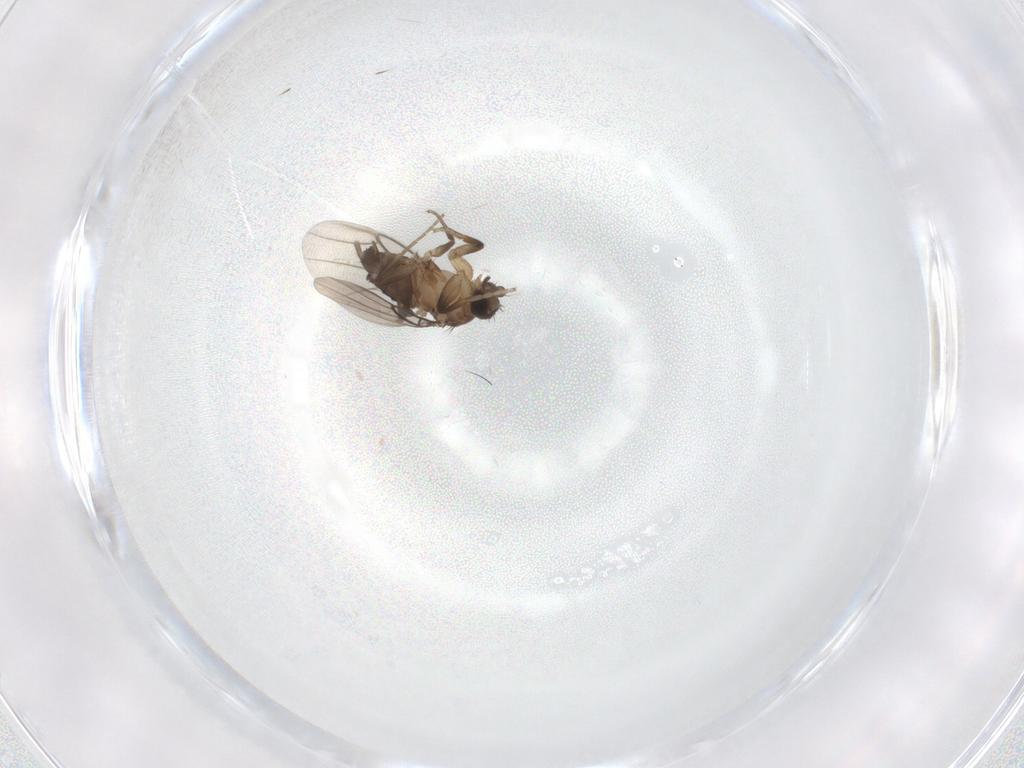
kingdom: Animalia
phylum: Arthropoda
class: Insecta
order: Diptera
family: Phoridae
